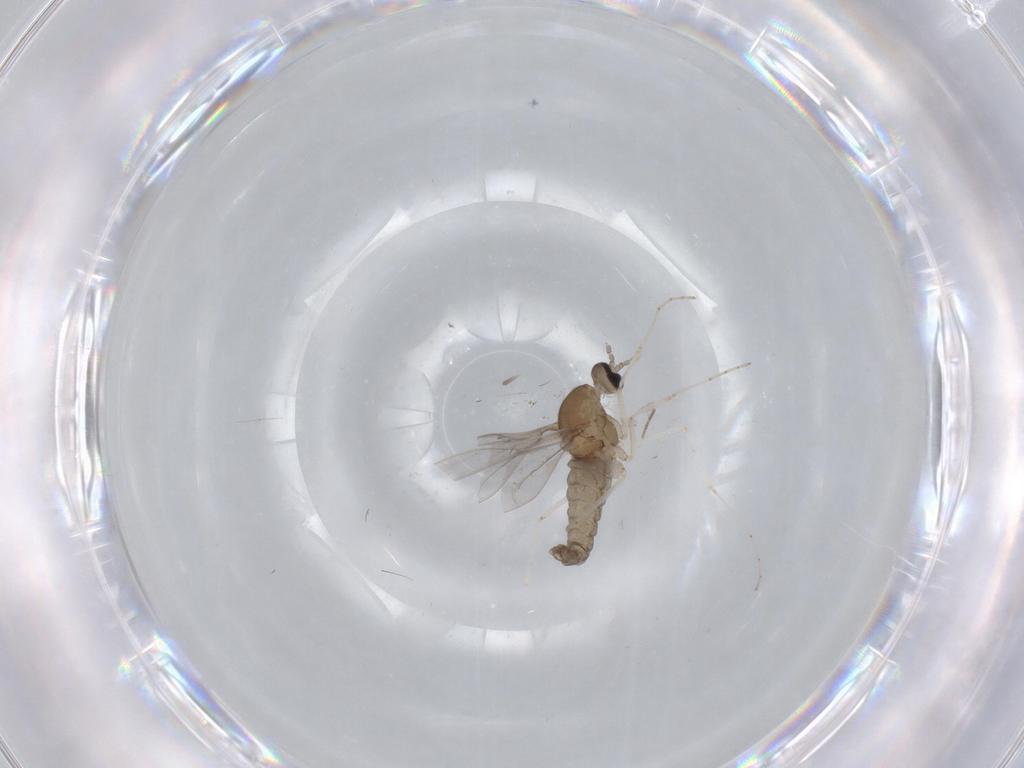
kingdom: Animalia
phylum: Arthropoda
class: Insecta
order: Diptera
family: Cecidomyiidae
